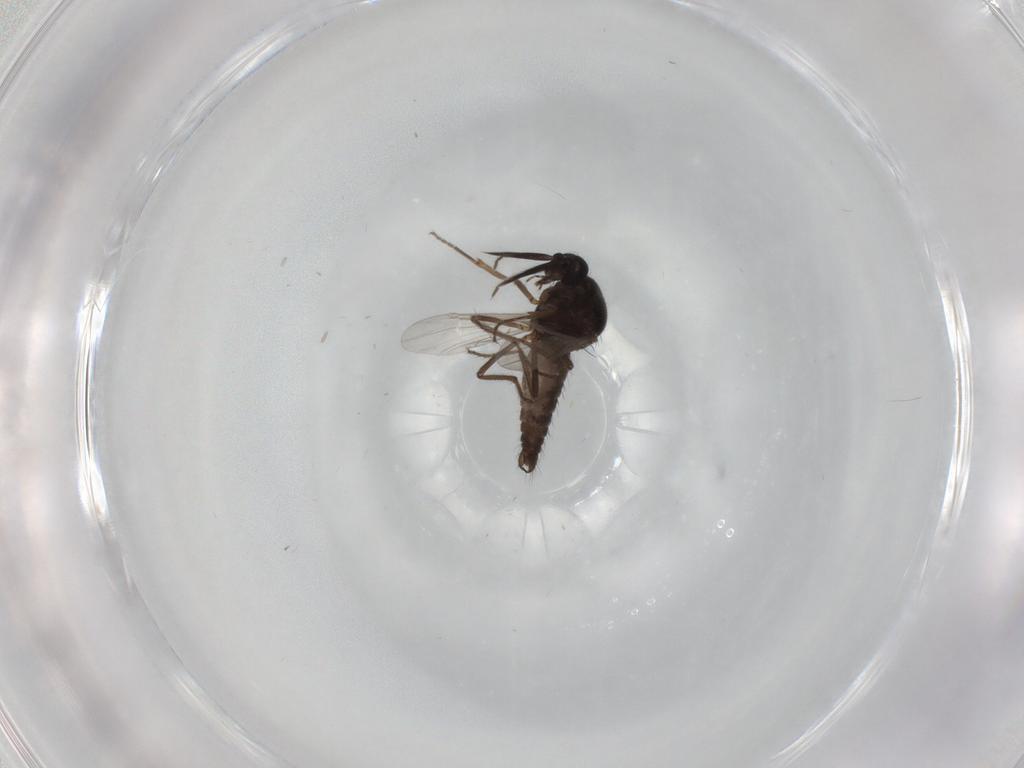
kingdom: Animalia
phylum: Arthropoda
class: Insecta
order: Diptera
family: Ceratopogonidae
